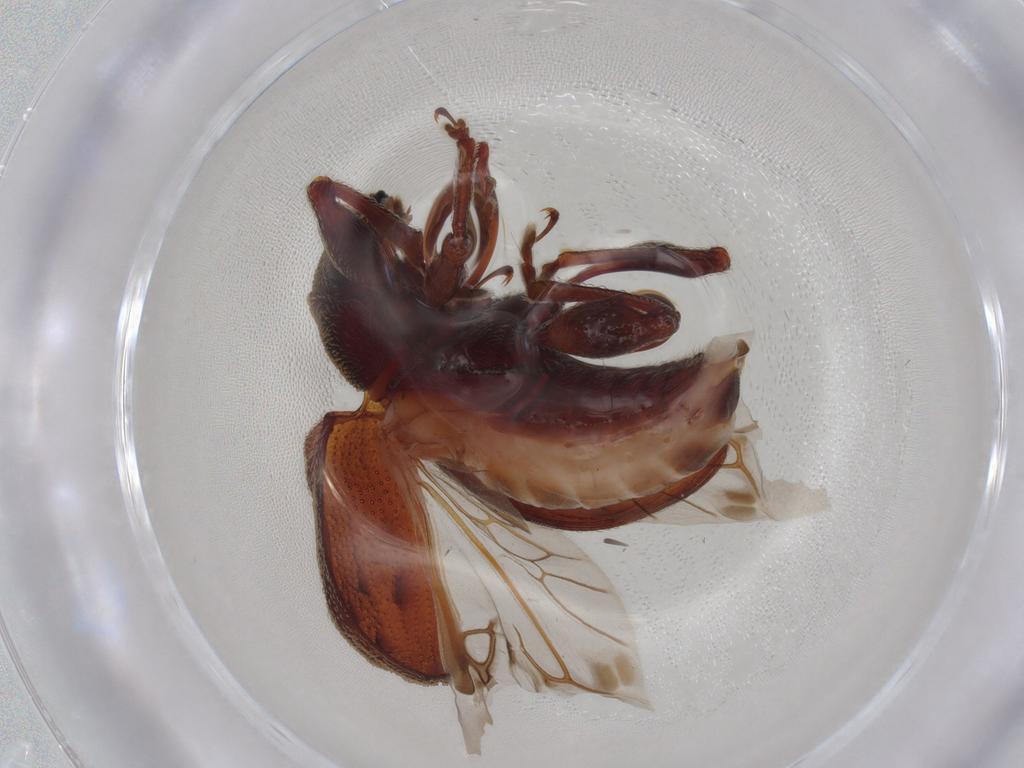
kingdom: Animalia
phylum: Arthropoda
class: Insecta
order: Coleoptera
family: Chrysomelidae
